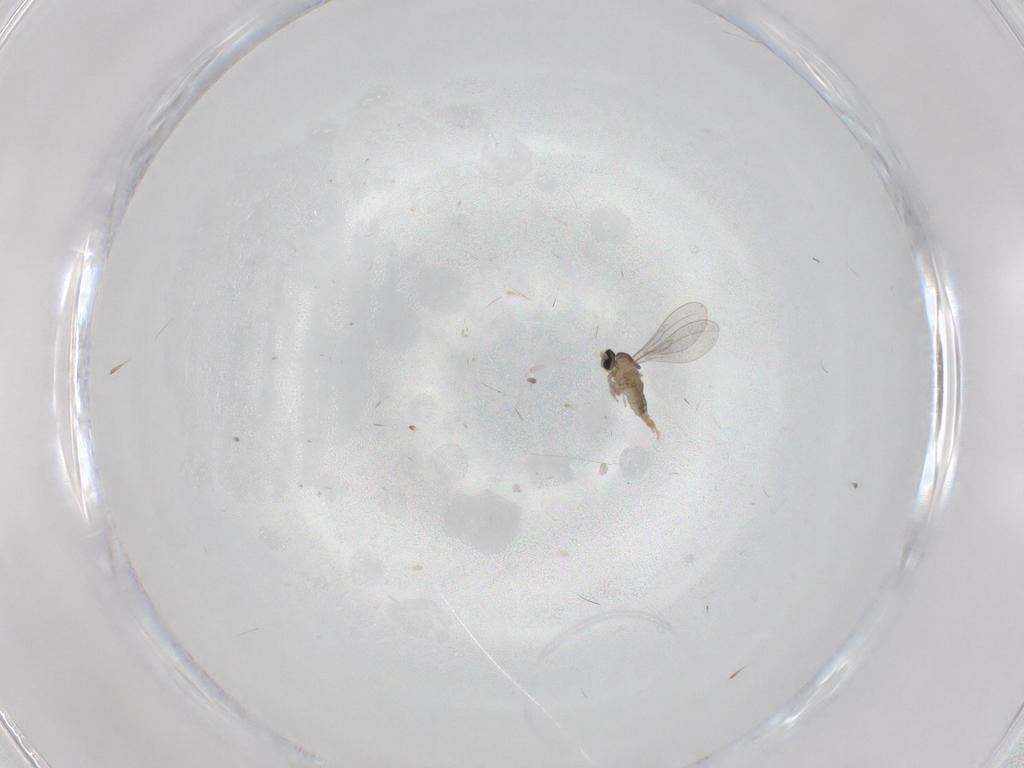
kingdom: Animalia
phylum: Arthropoda
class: Insecta
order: Diptera
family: Cecidomyiidae
